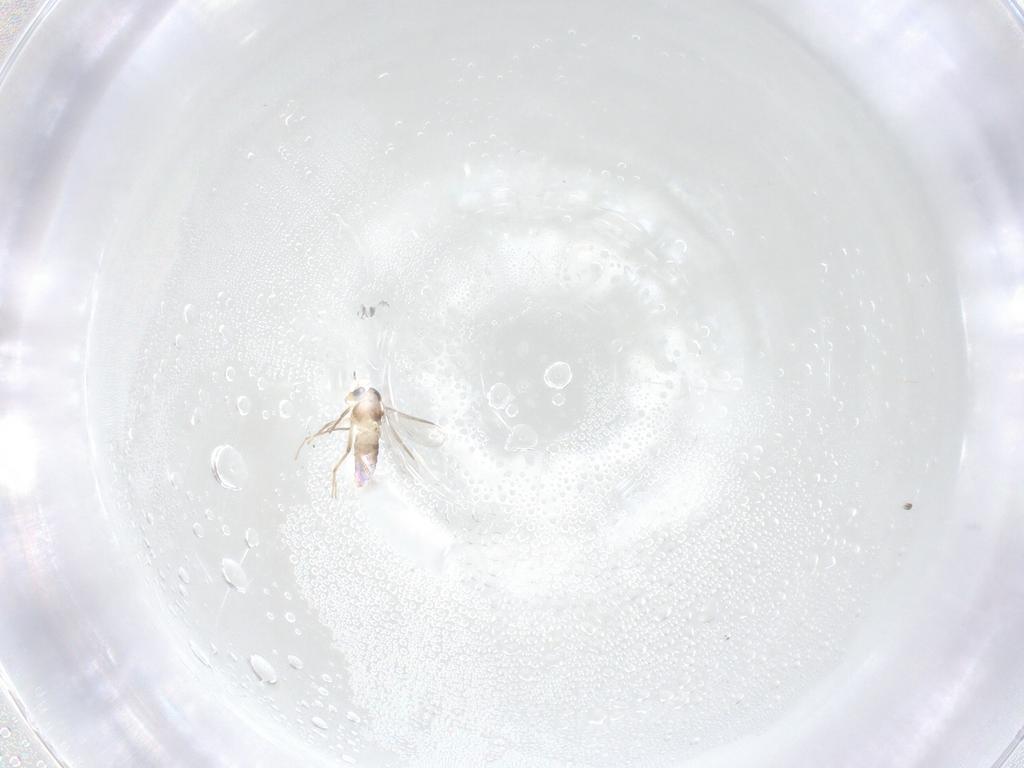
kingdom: Animalia
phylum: Arthropoda
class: Insecta
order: Diptera
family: Chironomidae
